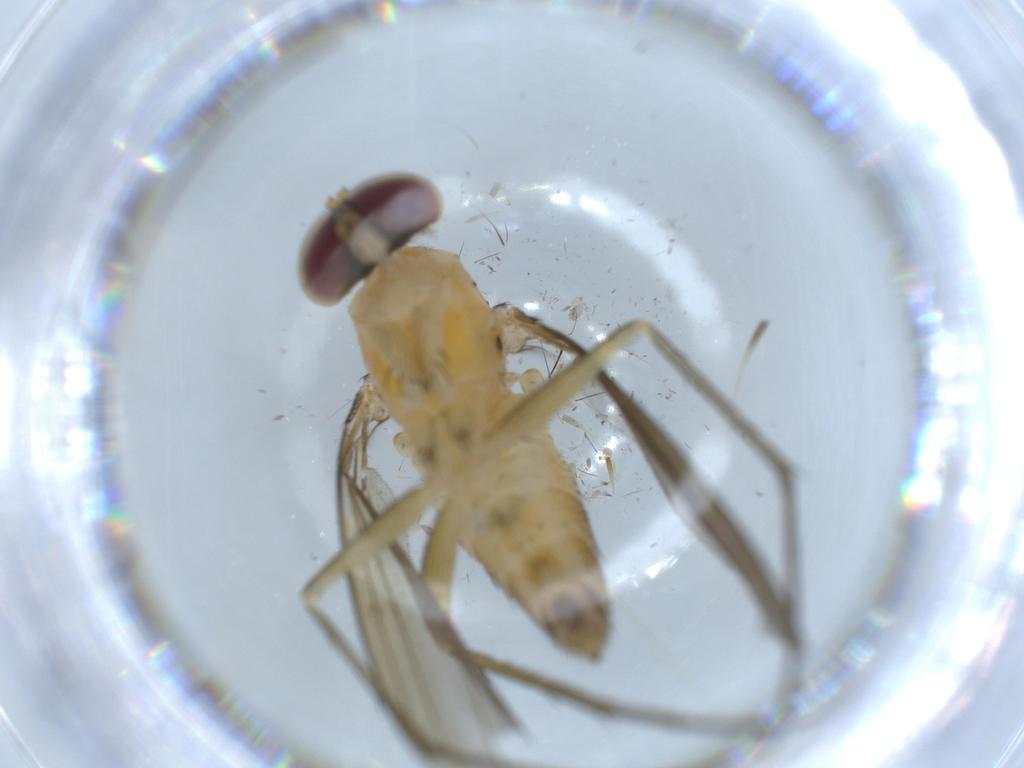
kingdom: Animalia
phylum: Arthropoda
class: Insecta
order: Diptera
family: Dolichopodidae
